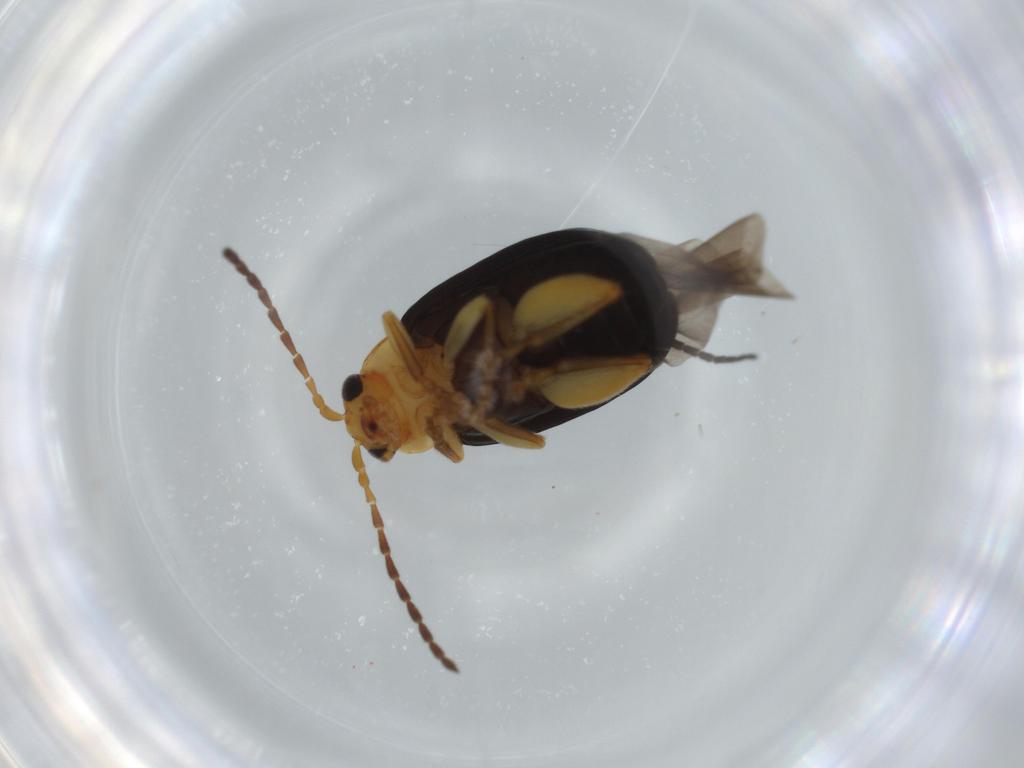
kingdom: Animalia
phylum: Arthropoda
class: Insecta
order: Coleoptera
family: Chrysomelidae
